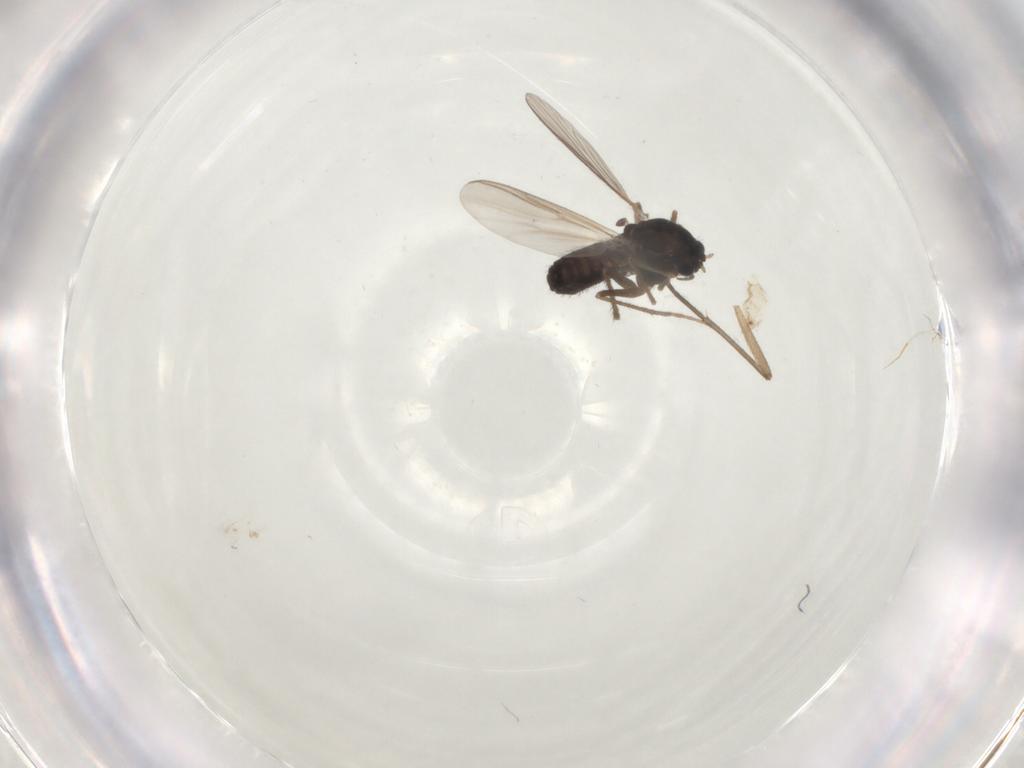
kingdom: Animalia
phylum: Arthropoda
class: Insecta
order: Diptera
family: Chironomidae
